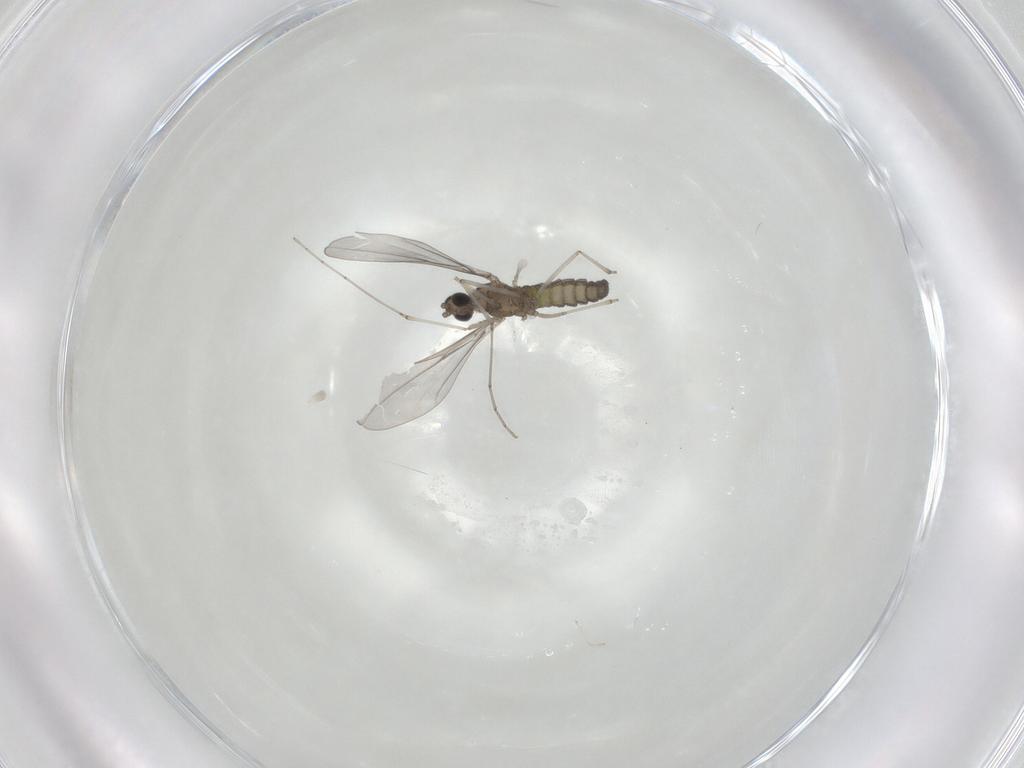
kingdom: Animalia
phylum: Arthropoda
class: Insecta
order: Diptera
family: Cecidomyiidae
